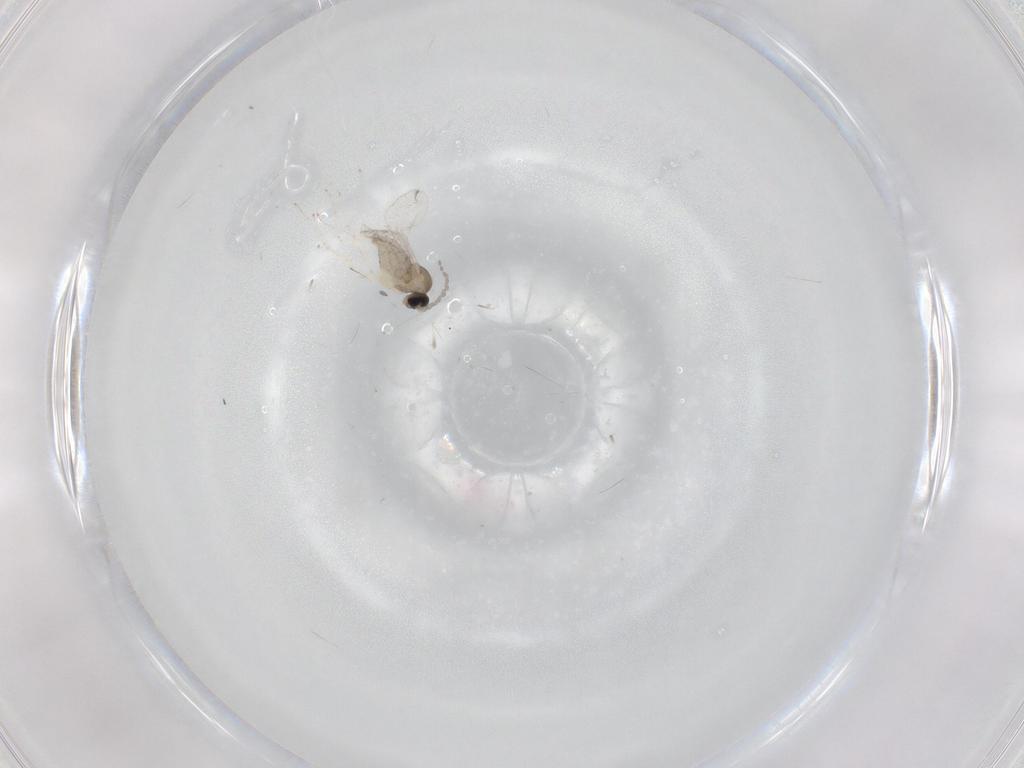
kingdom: Animalia
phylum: Arthropoda
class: Insecta
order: Diptera
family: Cecidomyiidae
